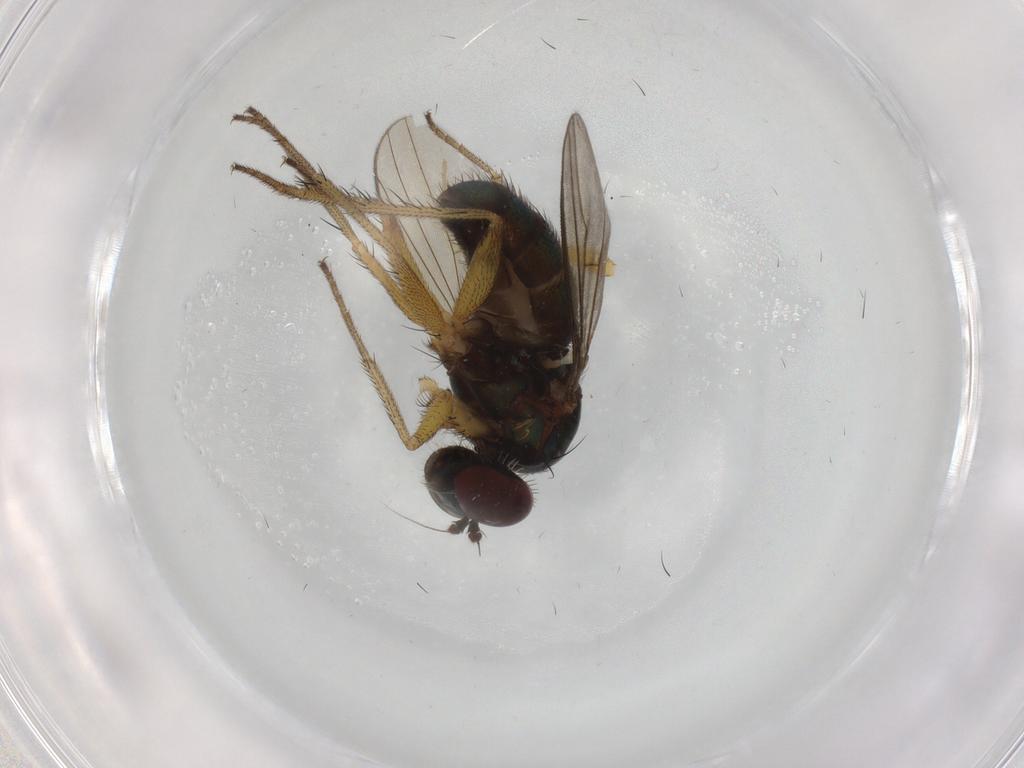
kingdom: Animalia
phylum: Arthropoda
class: Insecta
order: Diptera
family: Dolichopodidae
